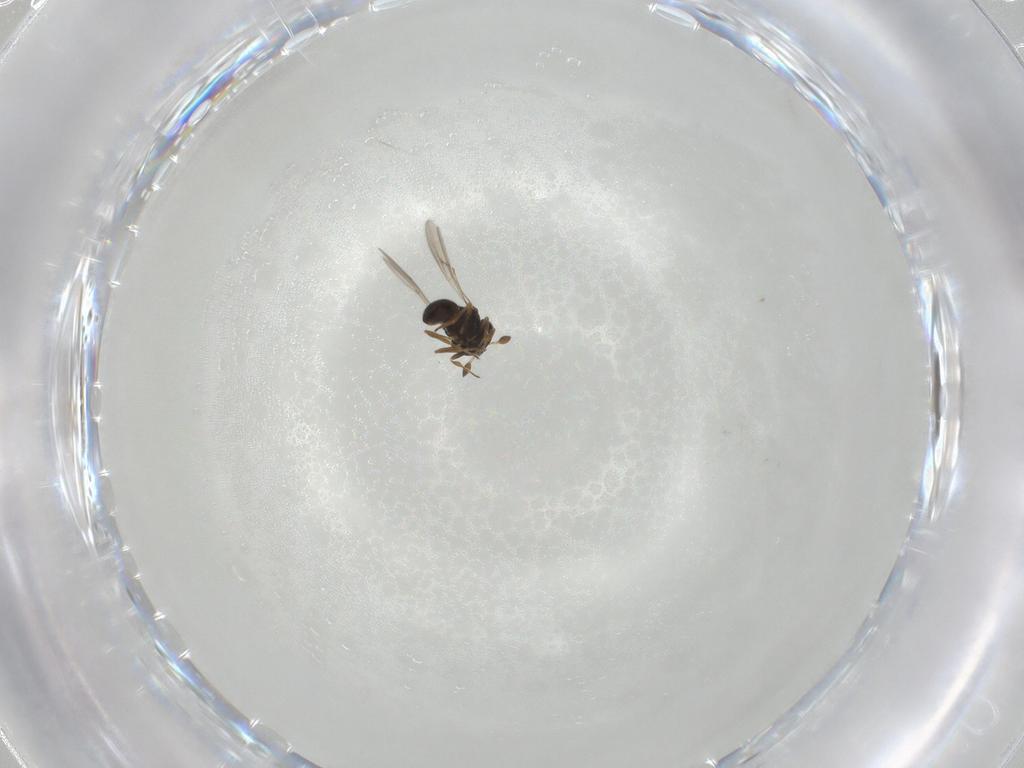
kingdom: Animalia
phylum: Arthropoda
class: Insecta
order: Hymenoptera
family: Scelionidae
